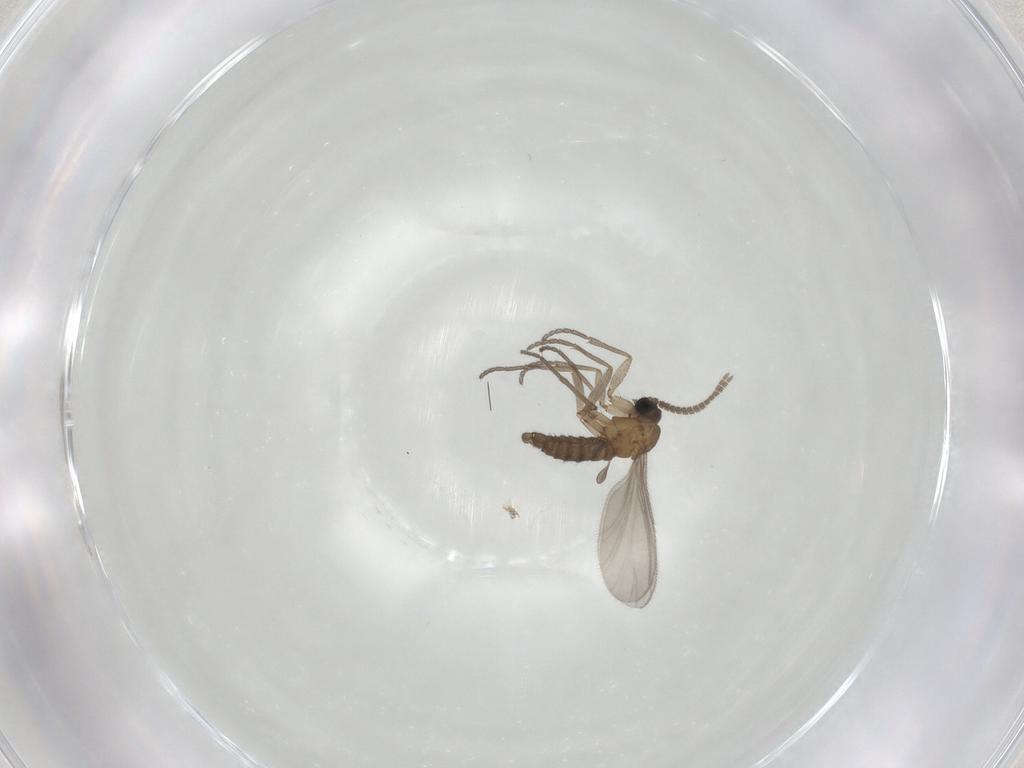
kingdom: Animalia
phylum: Arthropoda
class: Insecta
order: Diptera
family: Sciaridae
